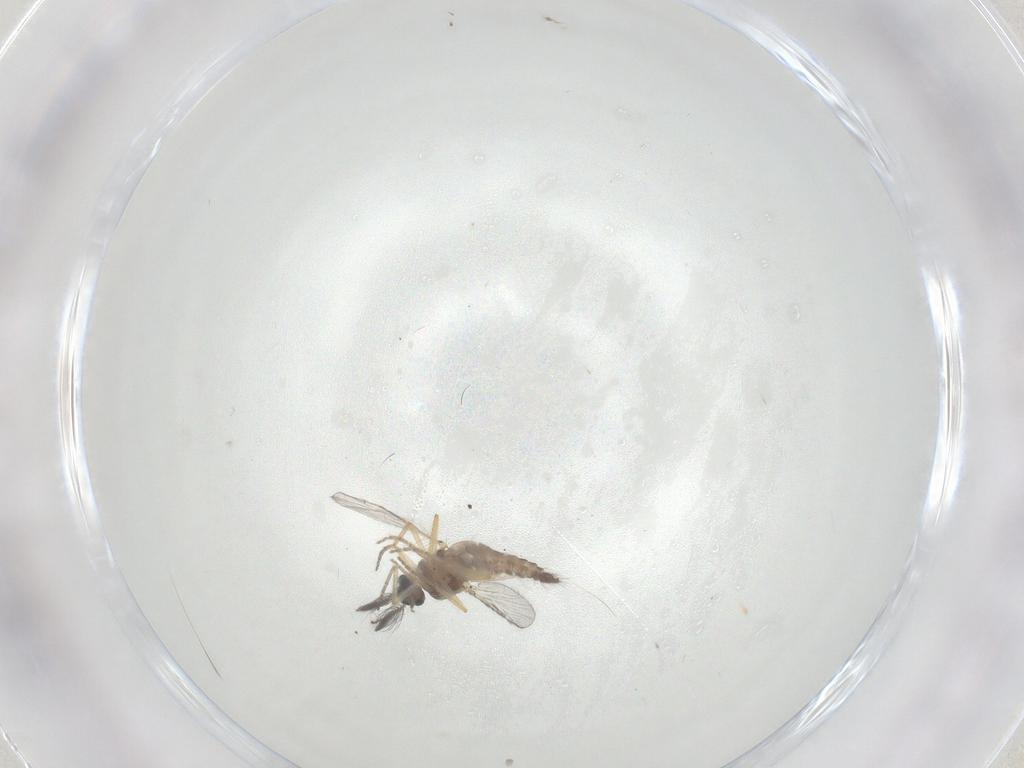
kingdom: Animalia
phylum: Arthropoda
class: Insecta
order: Diptera
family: Ceratopogonidae
